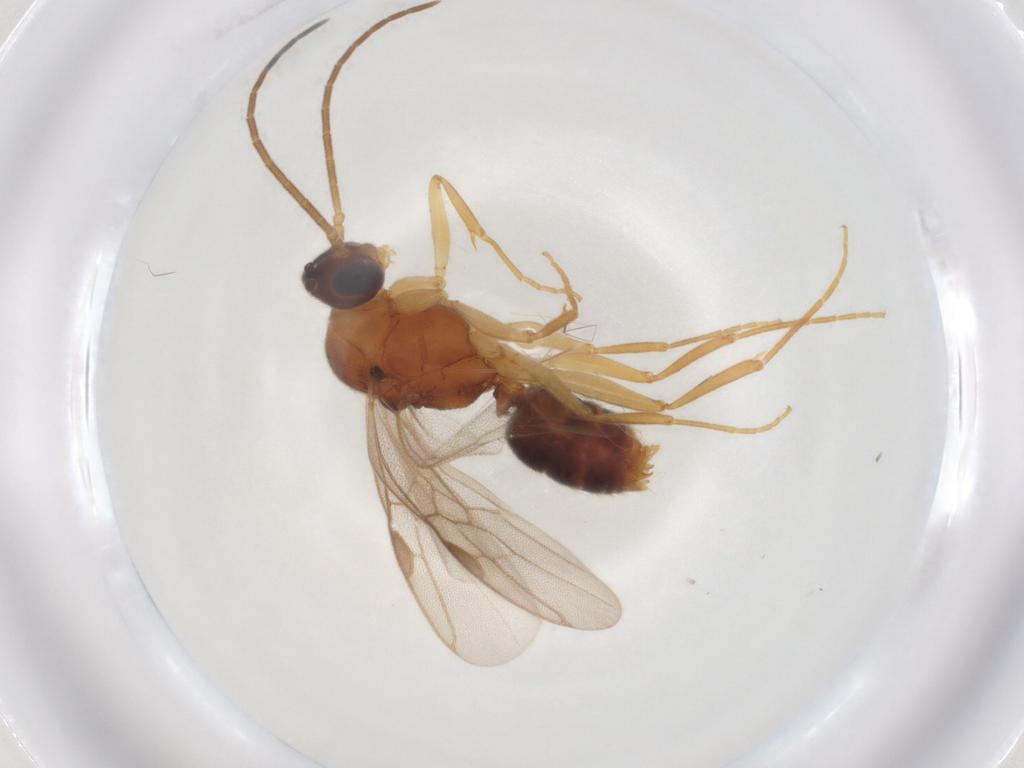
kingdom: Animalia
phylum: Arthropoda
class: Insecta
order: Hymenoptera
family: Formicidae
